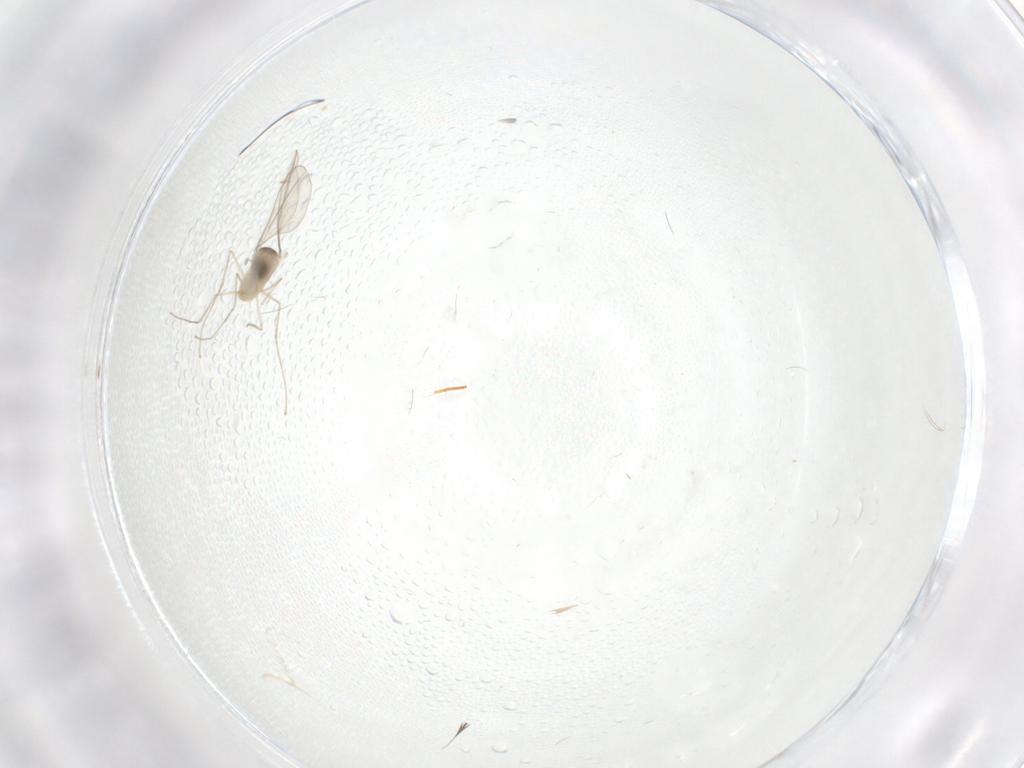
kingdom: Animalia
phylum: Arthropoda
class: Insecta
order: Diptera
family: Cecidomyiidae
